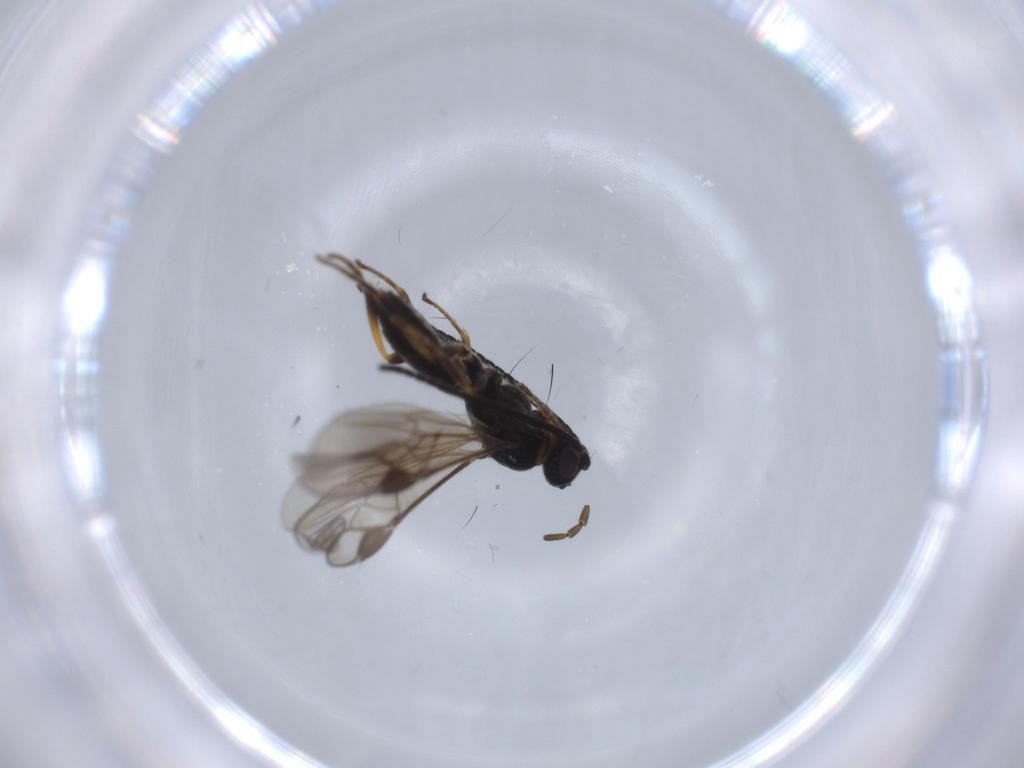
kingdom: Animalia
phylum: Arthropoda
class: Insecta
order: Hymenoptera
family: Braconidae
